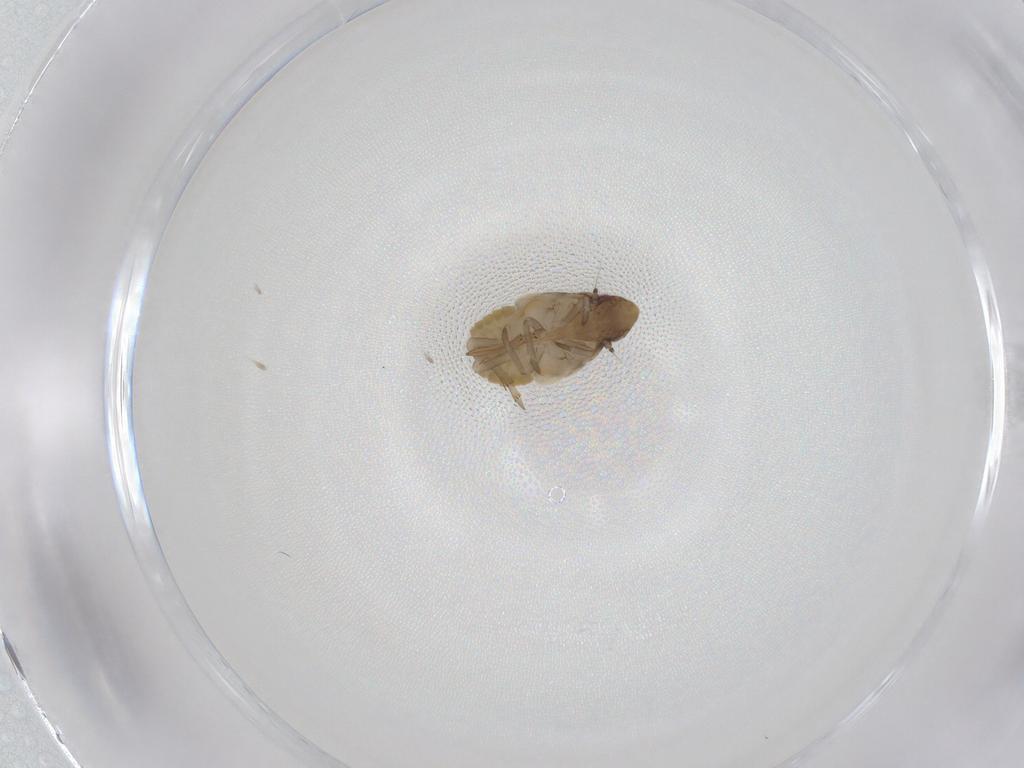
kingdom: Animalia
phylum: Arthropoda
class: Insecta
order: Hemiptera
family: Flatidae
